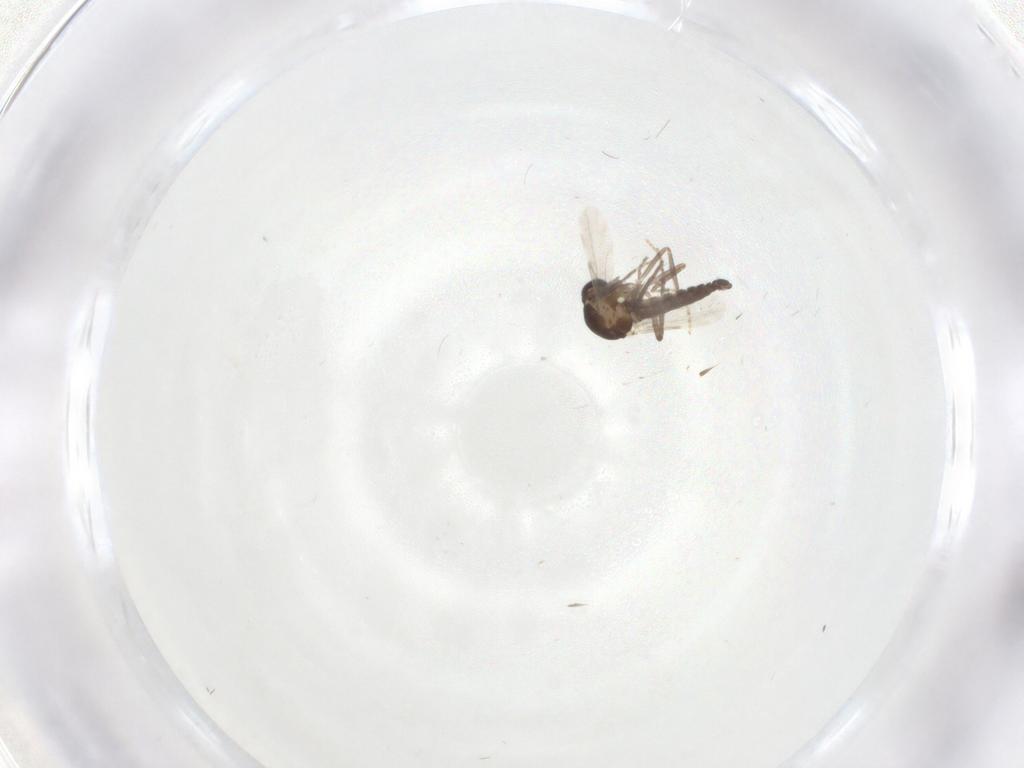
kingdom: Animalia
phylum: Arthropoda
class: Insecta
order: Diptera
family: Ceratopogonidae
